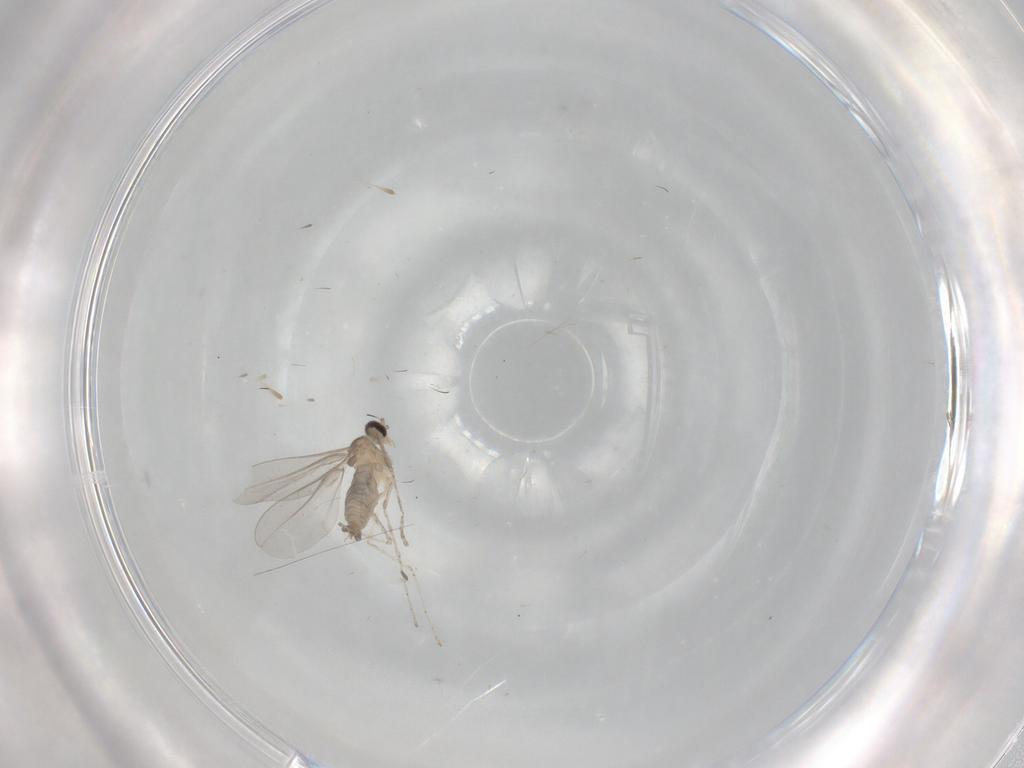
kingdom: Animalia
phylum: Arthropoda
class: Insecta
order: Diptera
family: Cecidomyiidae
